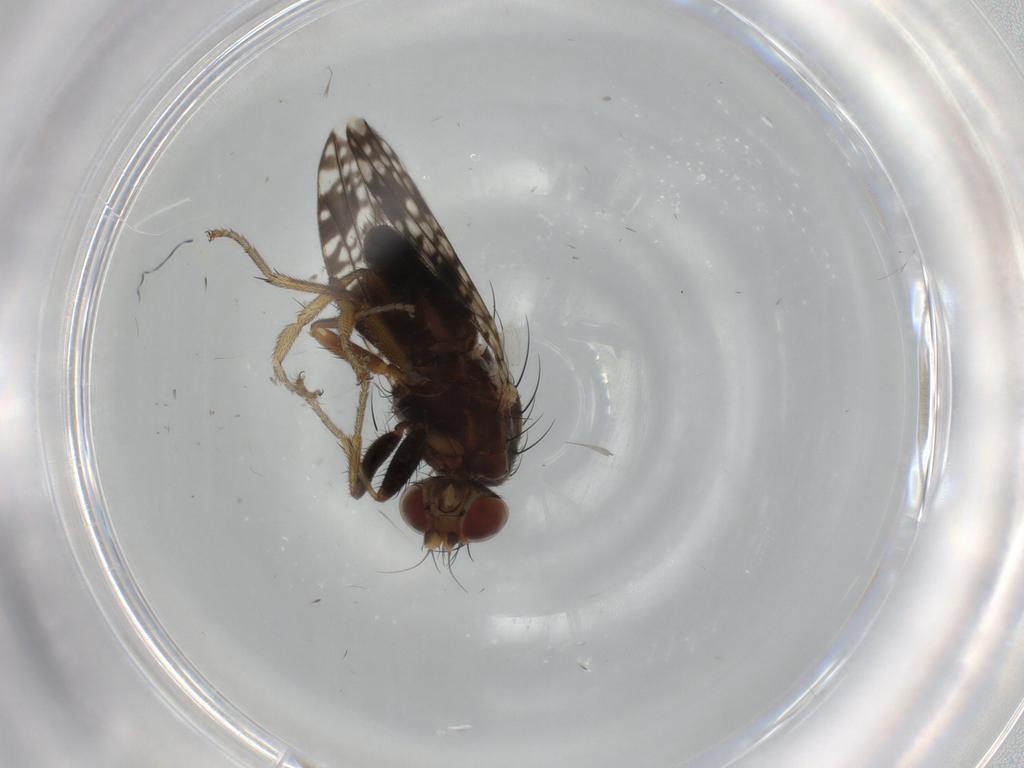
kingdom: Animalia
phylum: Arthropoda
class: Insecta
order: Diptera
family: Tephritidae
